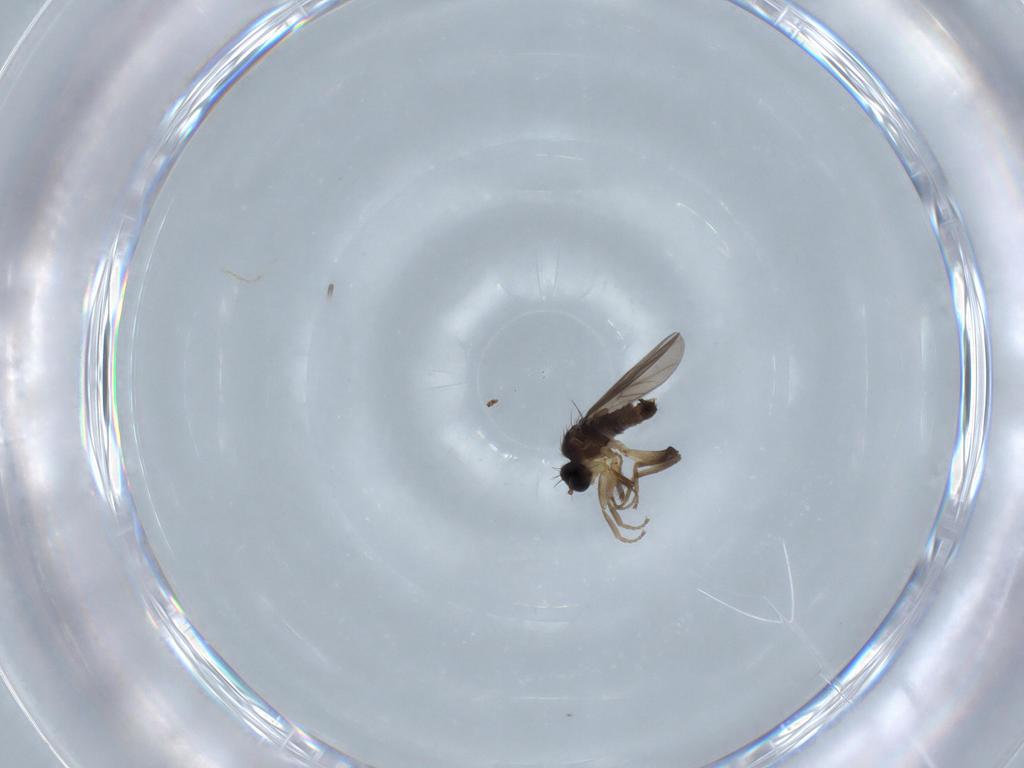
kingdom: Animalia
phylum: Arthropoda
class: Insecta
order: Diptera
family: Hybotidae
